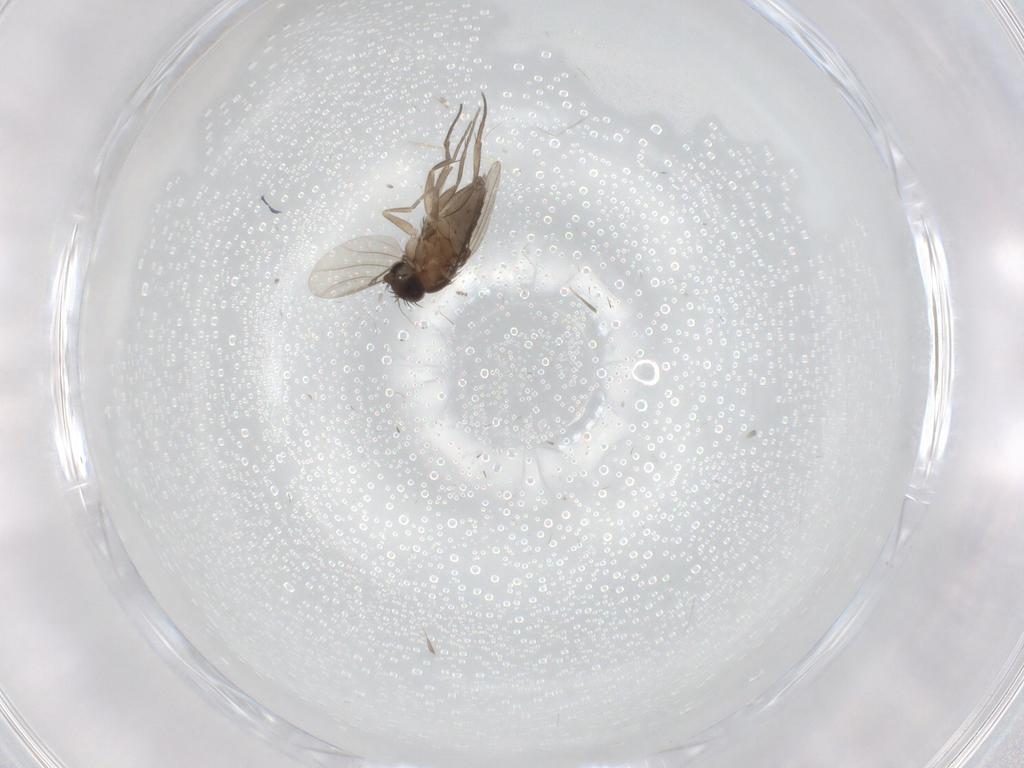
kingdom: Animalia
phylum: Arthropoda
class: Insecta
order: Diptera
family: Phoridae
